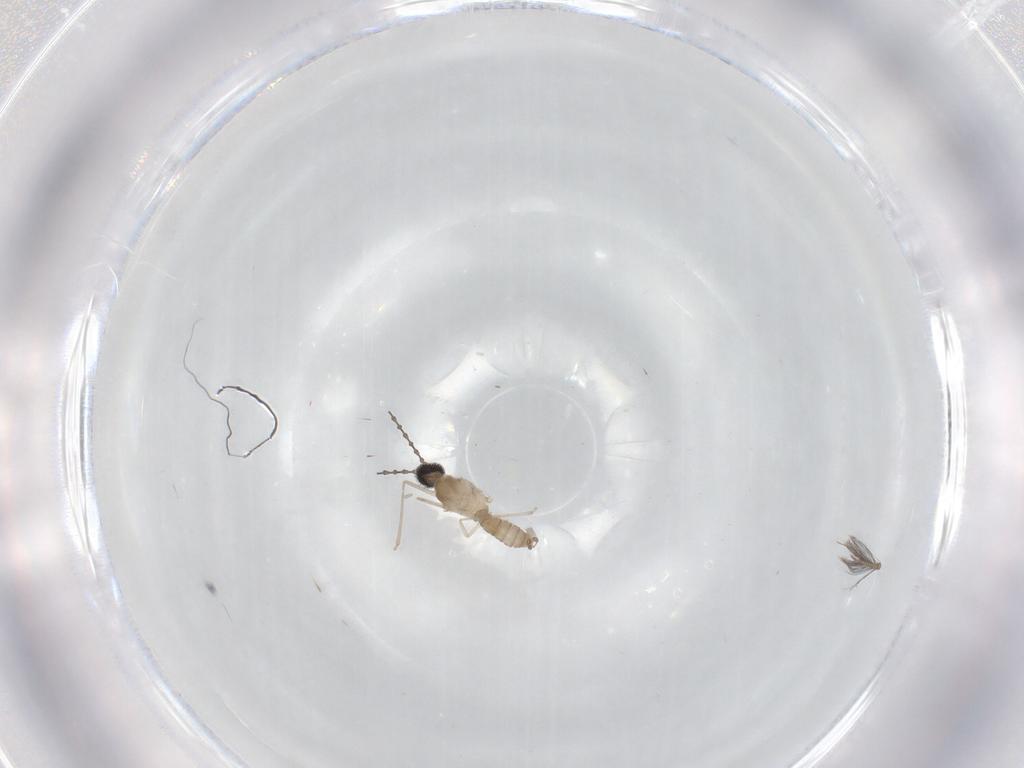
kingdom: Animalia
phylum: Arthropoda
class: Insecta
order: Diptera
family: Cecidomyiidae
